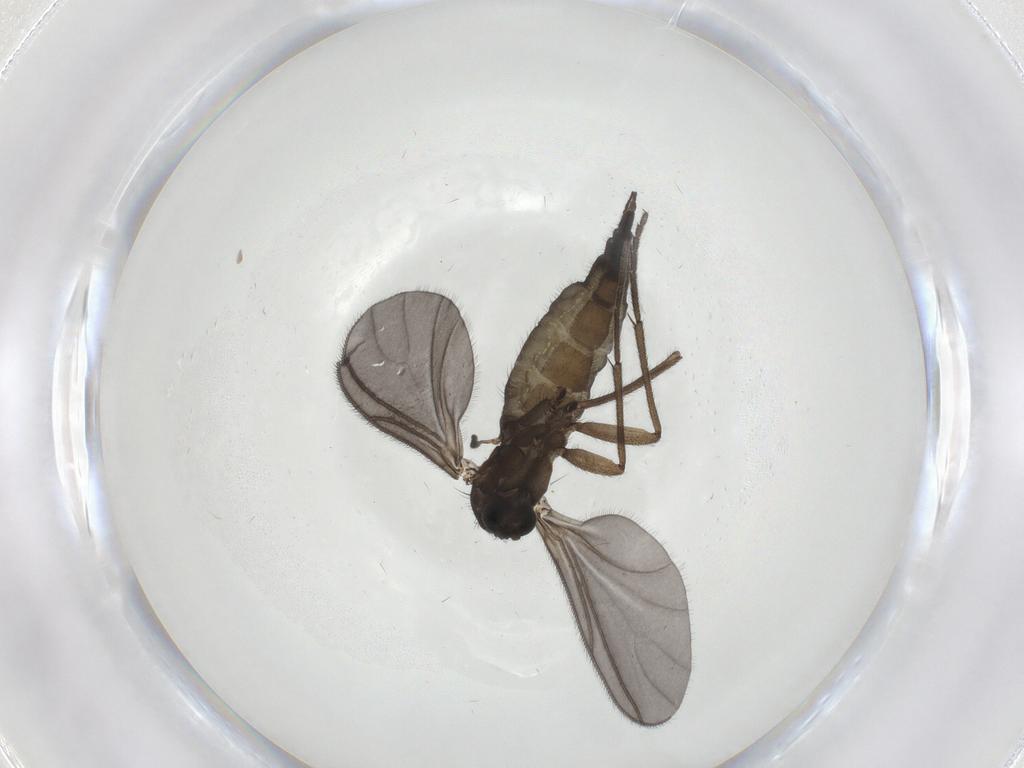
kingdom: Animalia
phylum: Arthropoda
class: Insecta
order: Diptera
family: Sciaridae
